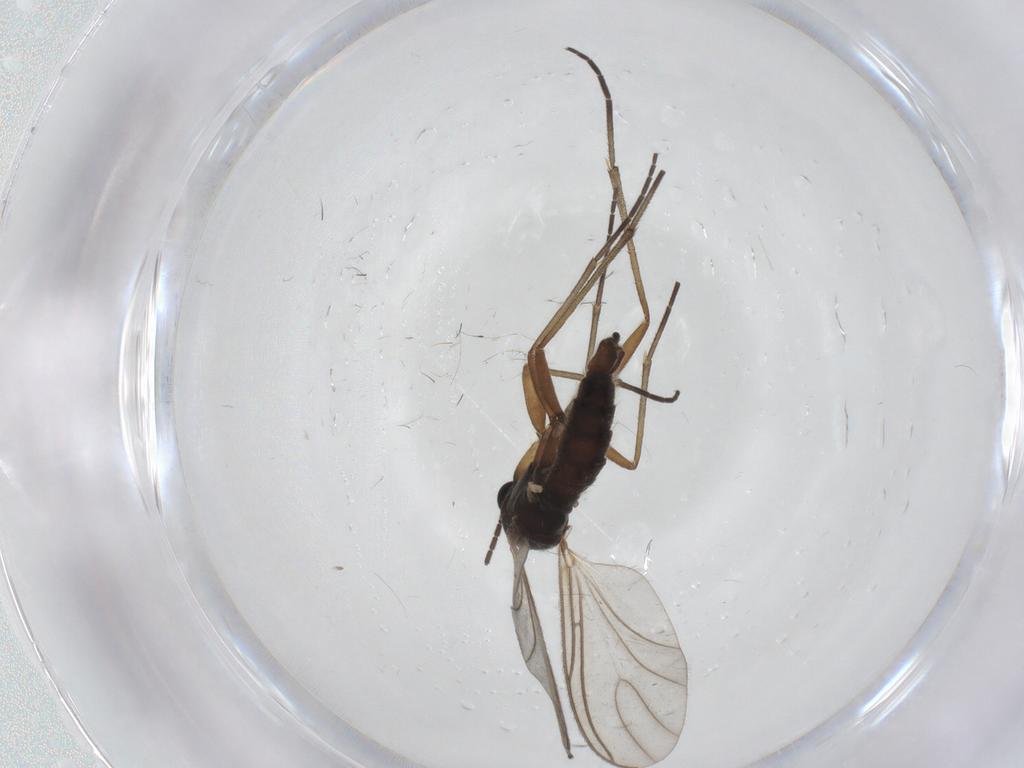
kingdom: Animalia
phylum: Arthropoda
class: Insecta
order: Diptera
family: Sciaridae
